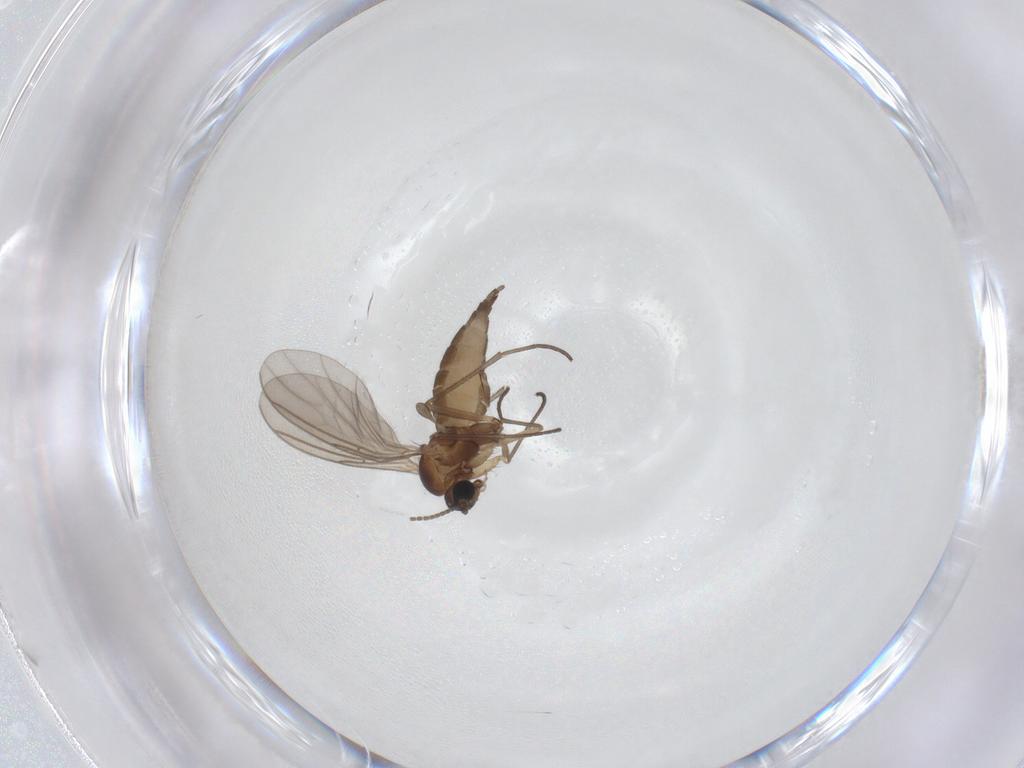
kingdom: Animalia
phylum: Arthropoda
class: Insecta
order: Diptera
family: Sciaridae
